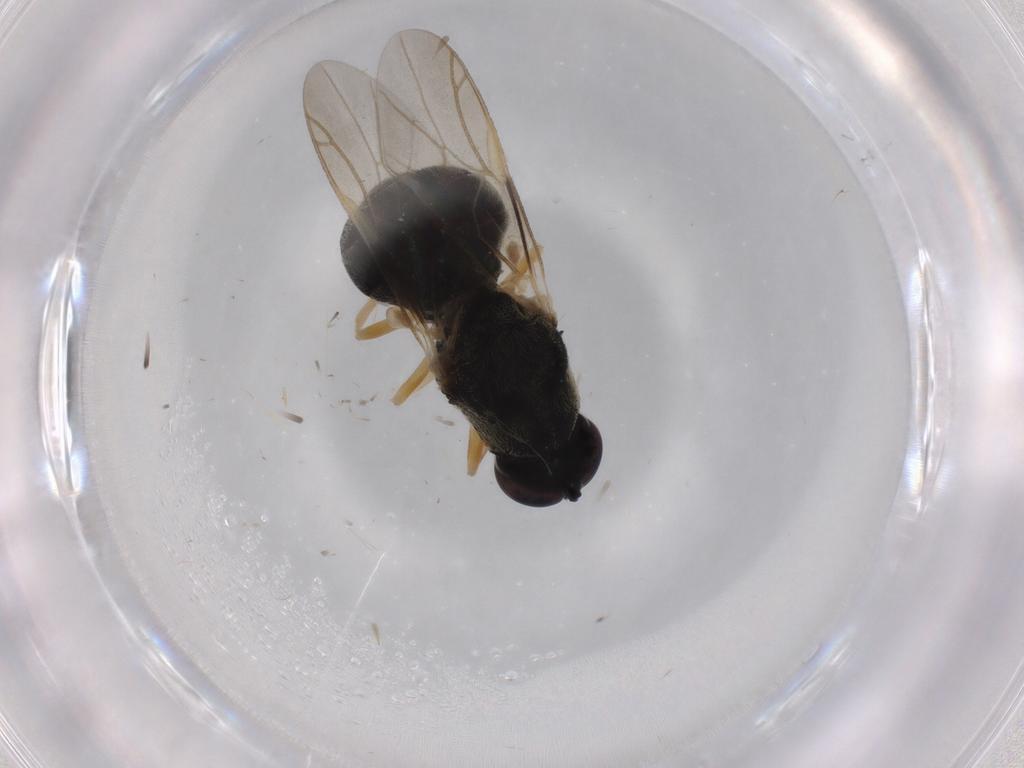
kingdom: Animalia
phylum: Arthropoda
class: Insecta
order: Diptera
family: Stratiomyidae
